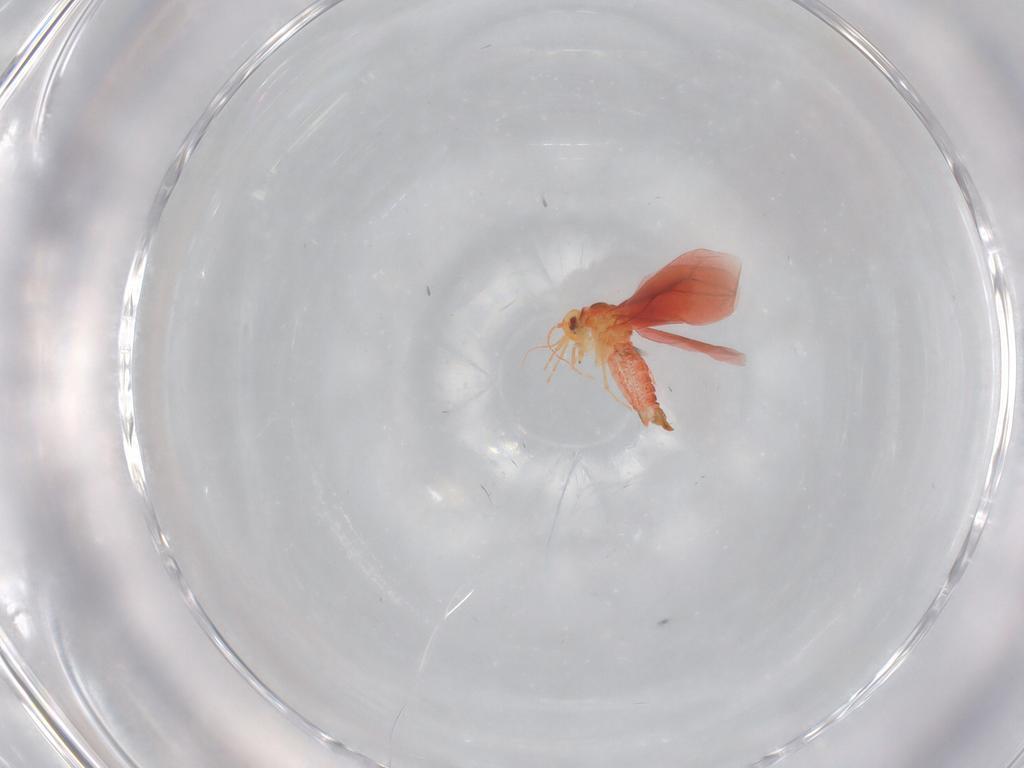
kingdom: Animalia
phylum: Arthropoda
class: Insecta
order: Hemiptera
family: Aleyrodidae
